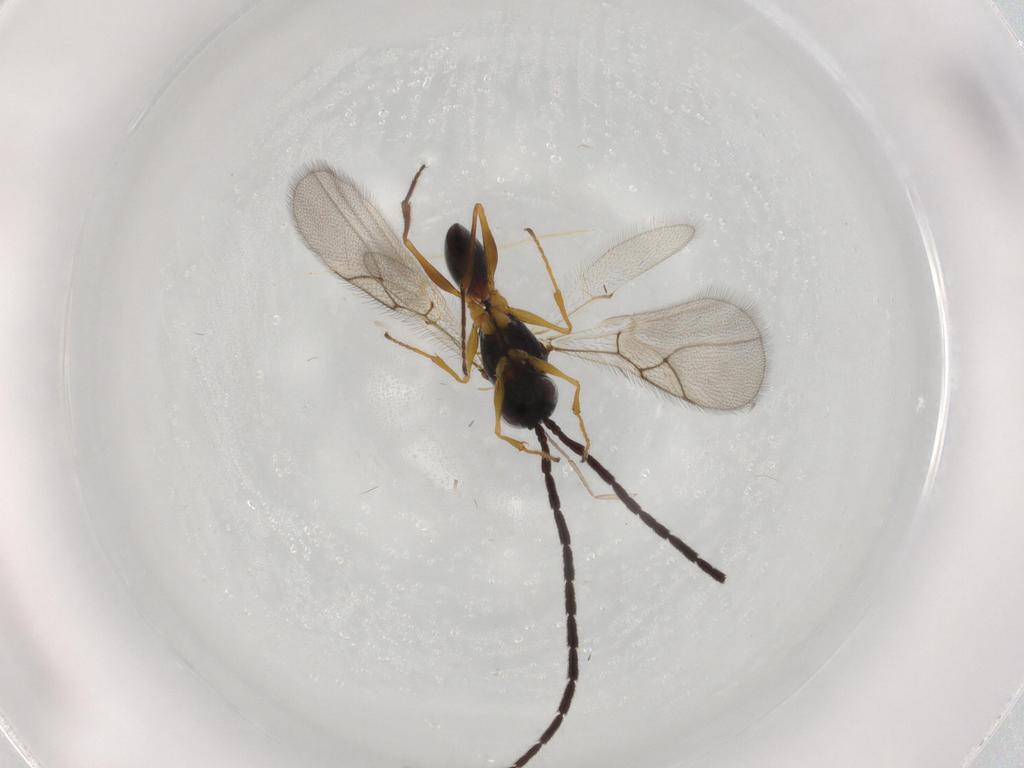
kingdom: Animalia
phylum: Arthropoda
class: Insecta
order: Hymenoptera
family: Figitidae
